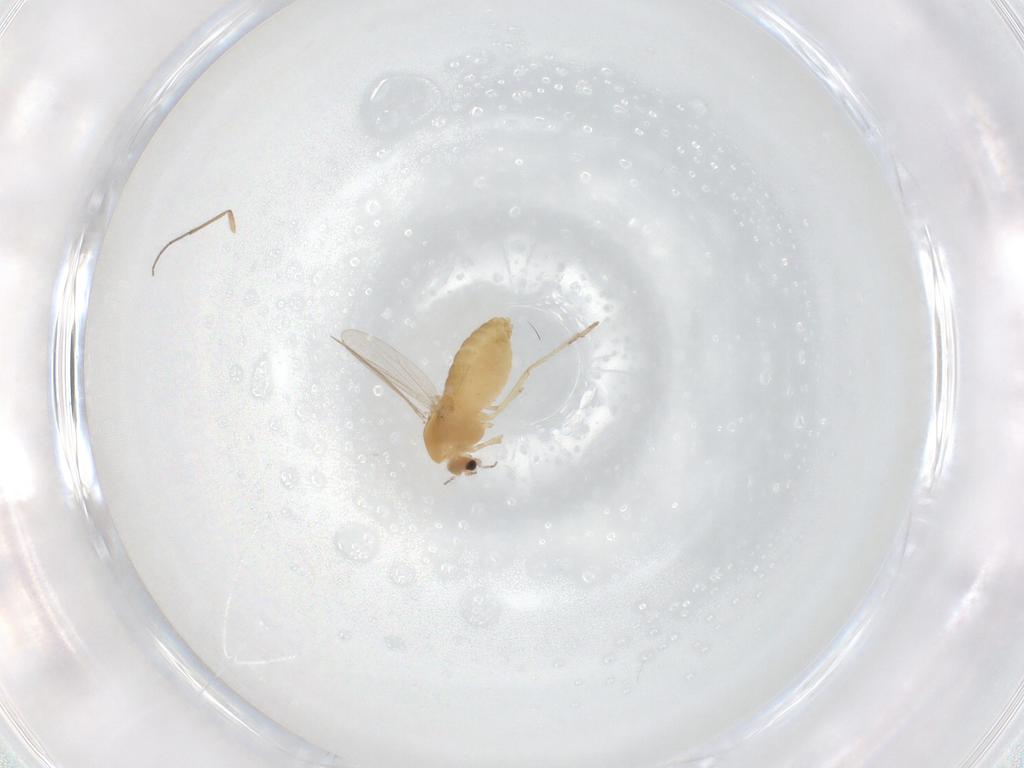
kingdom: Animalia
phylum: Arthropoda
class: Insecta
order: Diptera
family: Chironomidae
